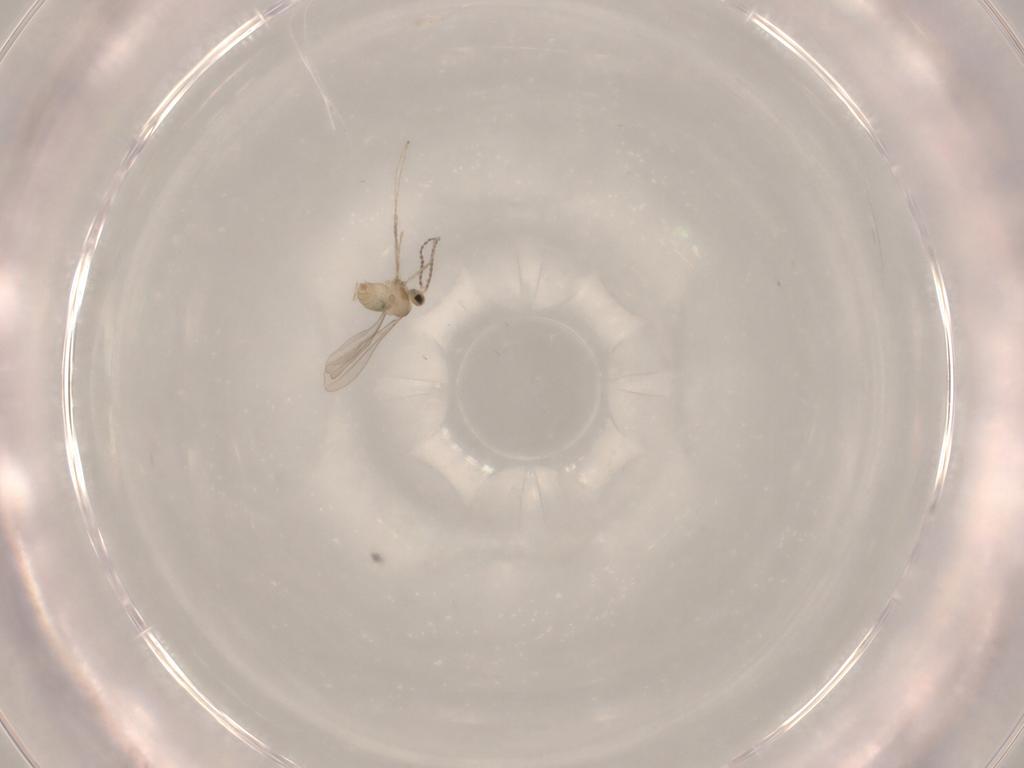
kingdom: Animalia
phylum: Arthropoda
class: Insecta
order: Diptera
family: Cecidomyiidae
